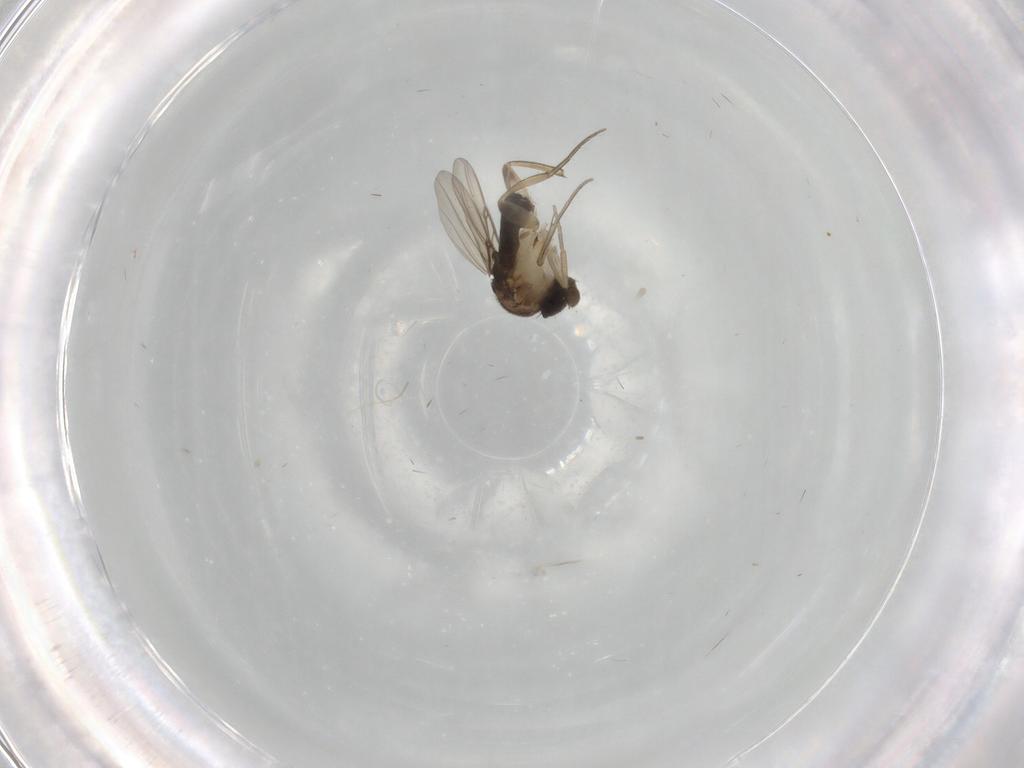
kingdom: Animalia
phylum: Arthropoda
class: Insecta
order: Diptera
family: Phoridae
